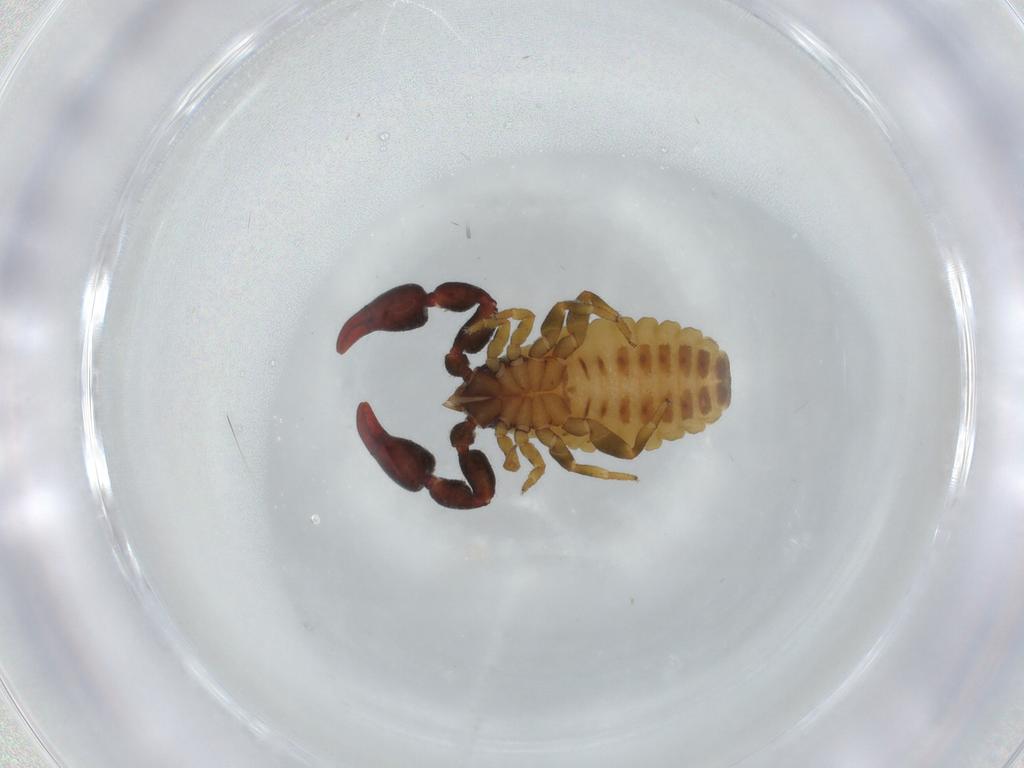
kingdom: Animalia
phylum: Arthropoda
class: Arachnida
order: Pseudoscorpiones
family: Chernetidae
